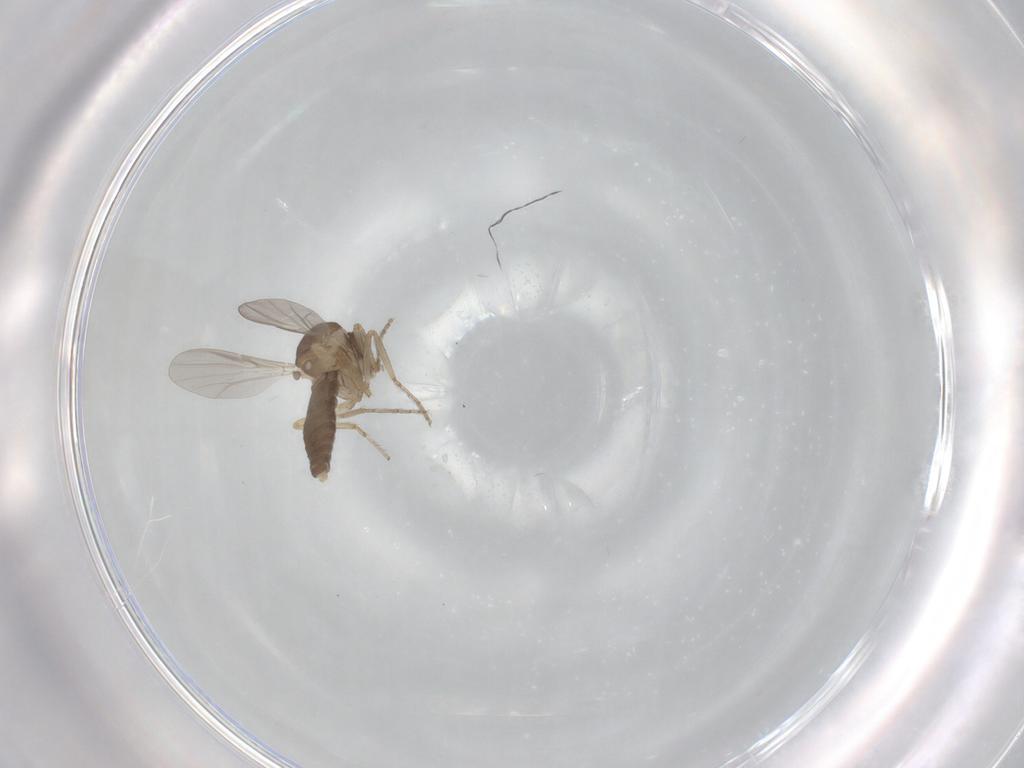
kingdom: Animalia
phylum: Arthropoda
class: Insecta
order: Diptera
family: Ceratopogonidae
